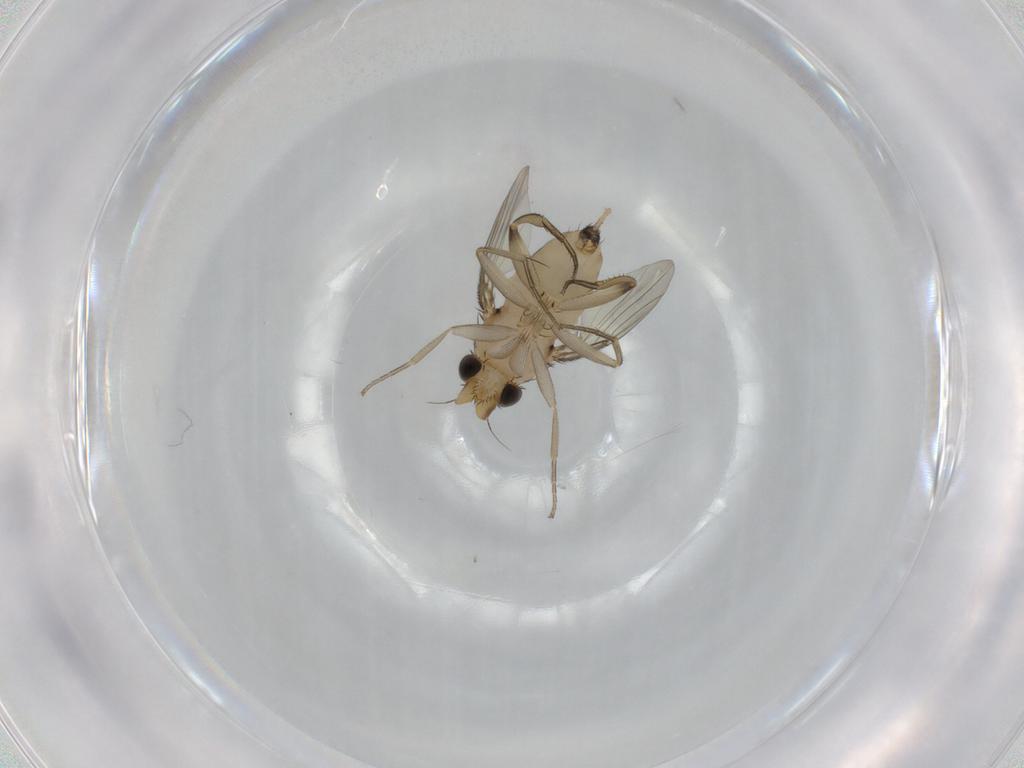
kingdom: Animalia
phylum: Arthropoda
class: Insecta
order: Diptera
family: Phoridae
